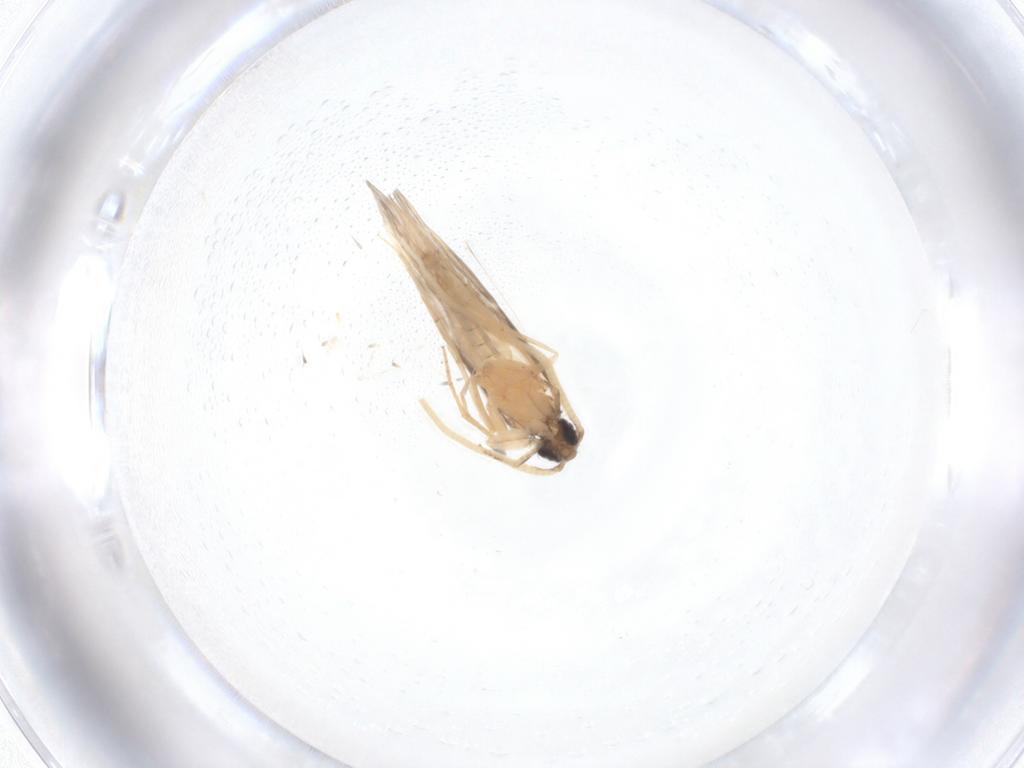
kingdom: Animalia
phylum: Arthropoda
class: Insecta
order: Trichoptera
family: Hydroptilidae
